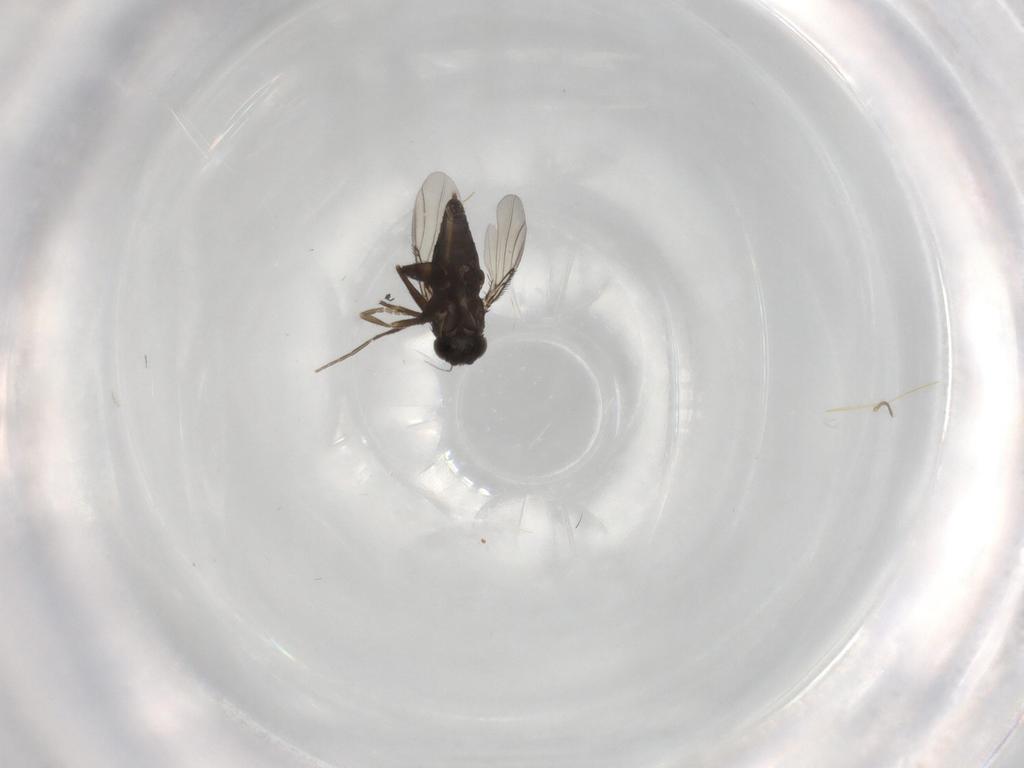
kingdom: Animalia
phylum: Arthropoda
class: Insecta
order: Diptera
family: Phoridae
